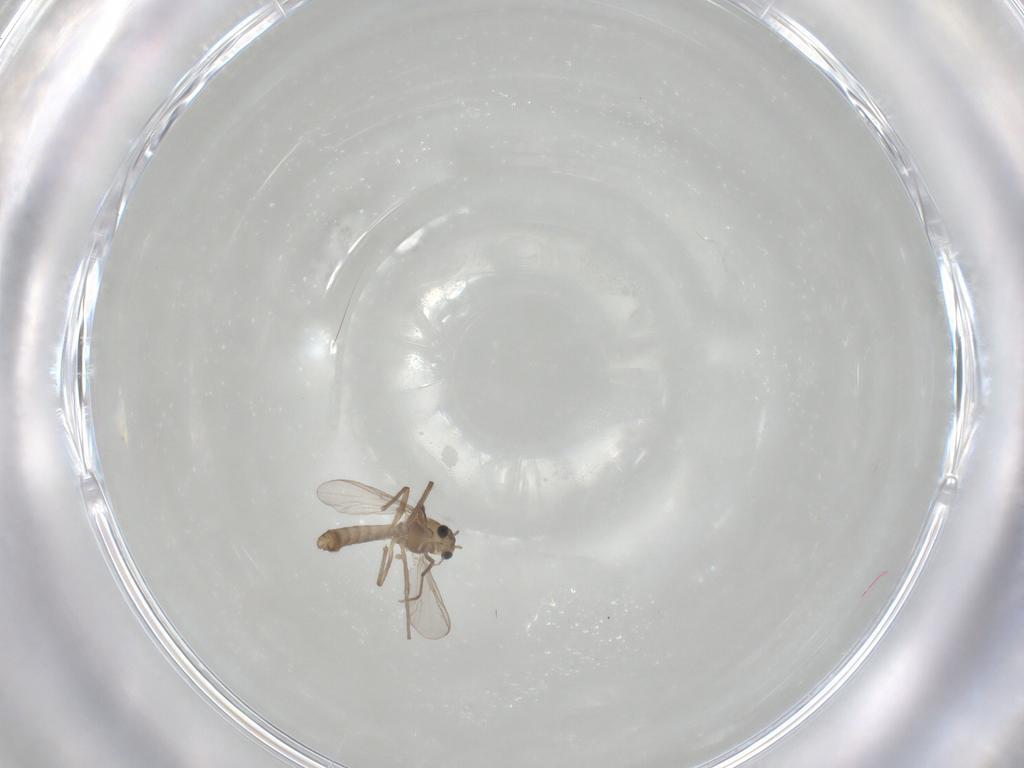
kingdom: Animalia
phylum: Arthropoda
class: Insecta
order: Diptera
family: Chironomidae
